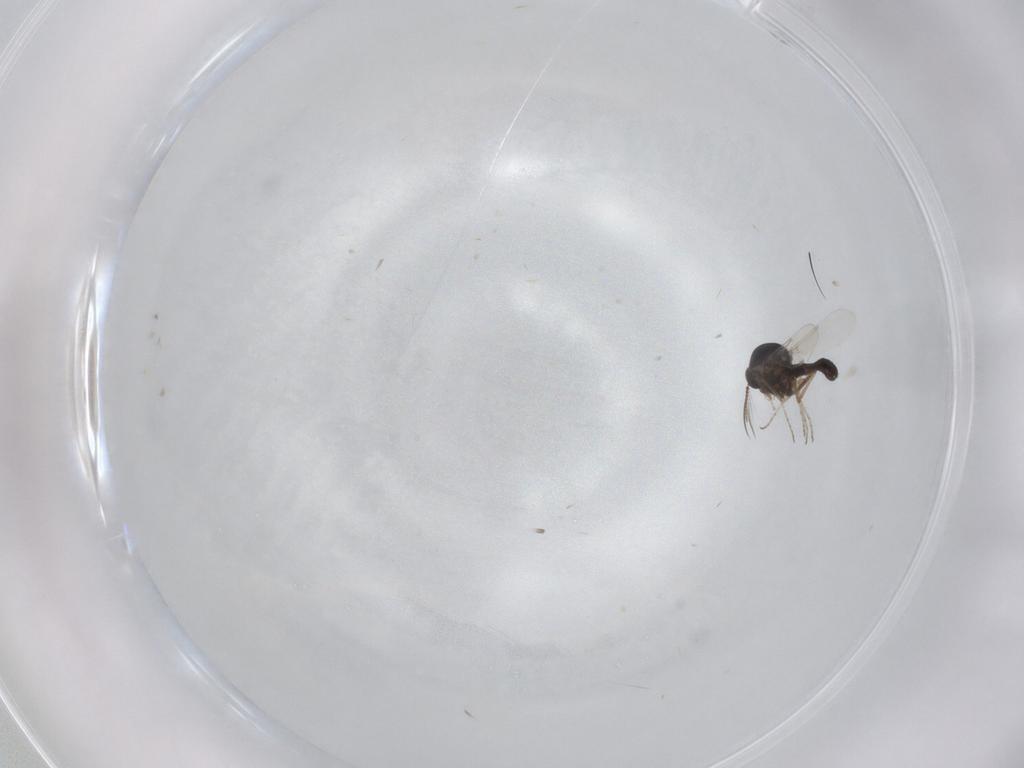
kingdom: Animalia
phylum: Arthropoda
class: Insecta
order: Diptera
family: Ceratopogonidae
